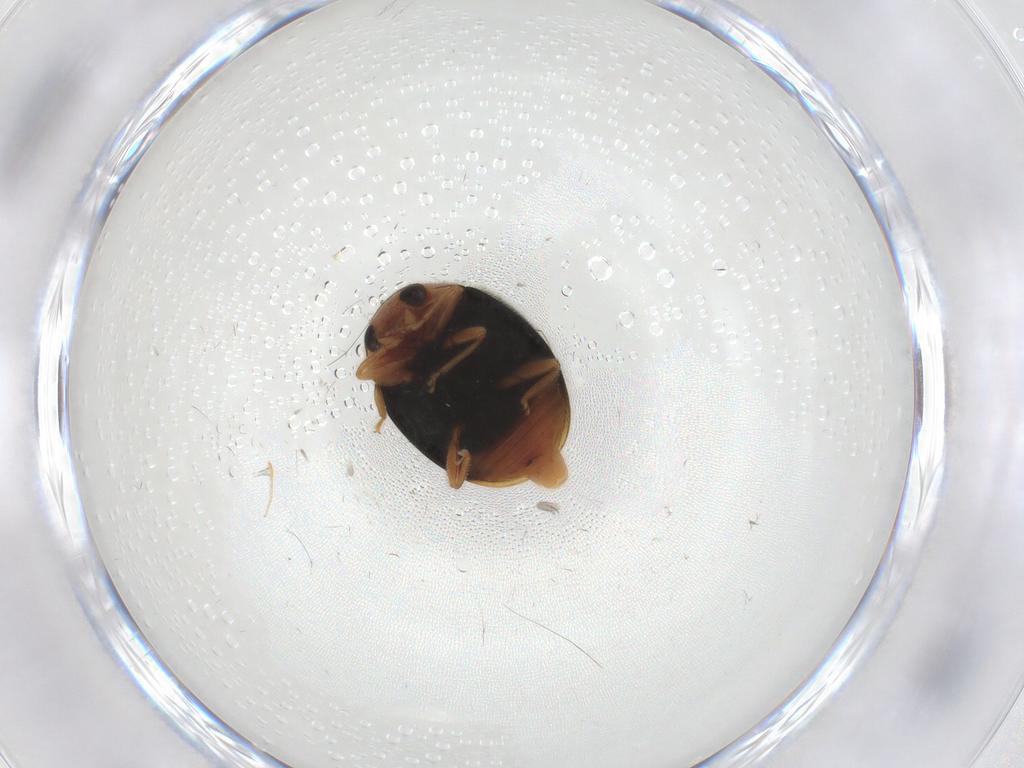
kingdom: Animalia
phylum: Arthropoda
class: Insecta
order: Coleoptera
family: Coccinellidae
